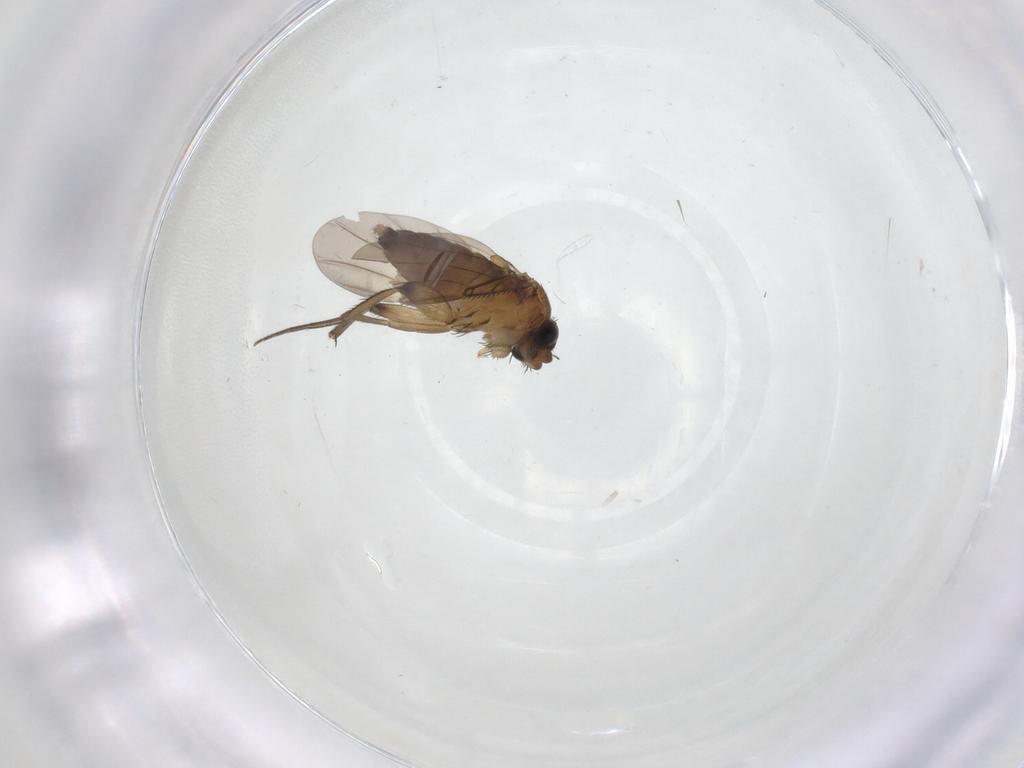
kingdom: Animalia
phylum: Arthropoda
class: Insecta
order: Diptera
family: Phoridae
